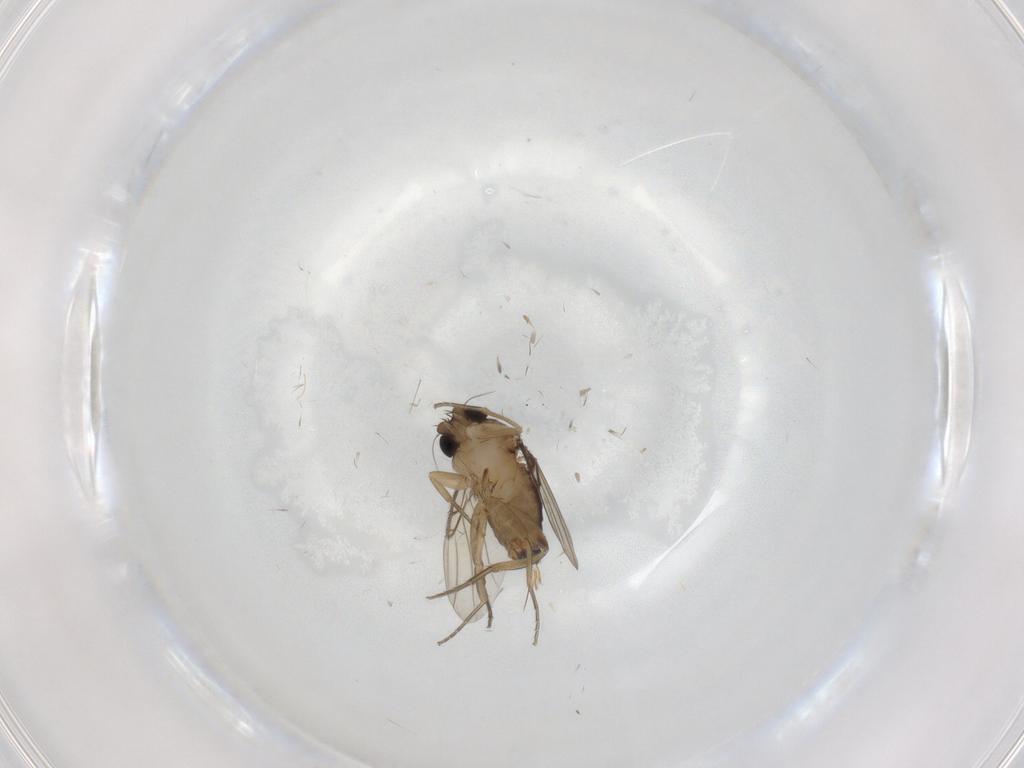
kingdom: Animalia
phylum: Arthropoda
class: Insecta
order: Diptera
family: Phoridae
